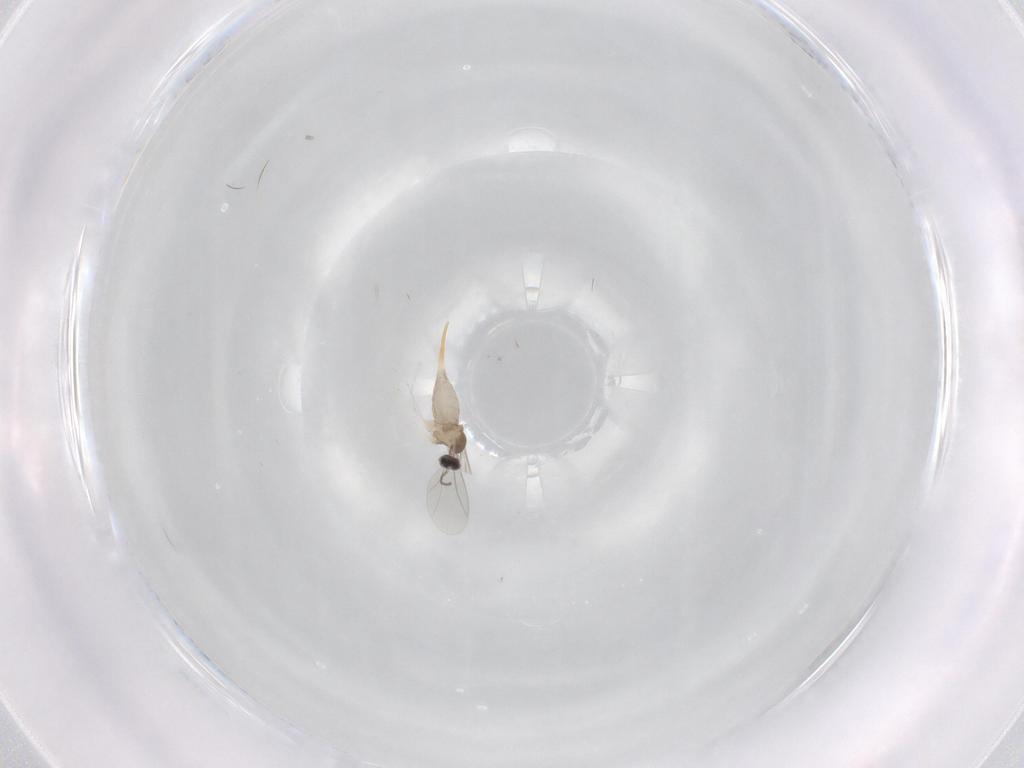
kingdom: Animalia
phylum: Arthropoda
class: Insecta
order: Diptera
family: Cecidomyiidae
